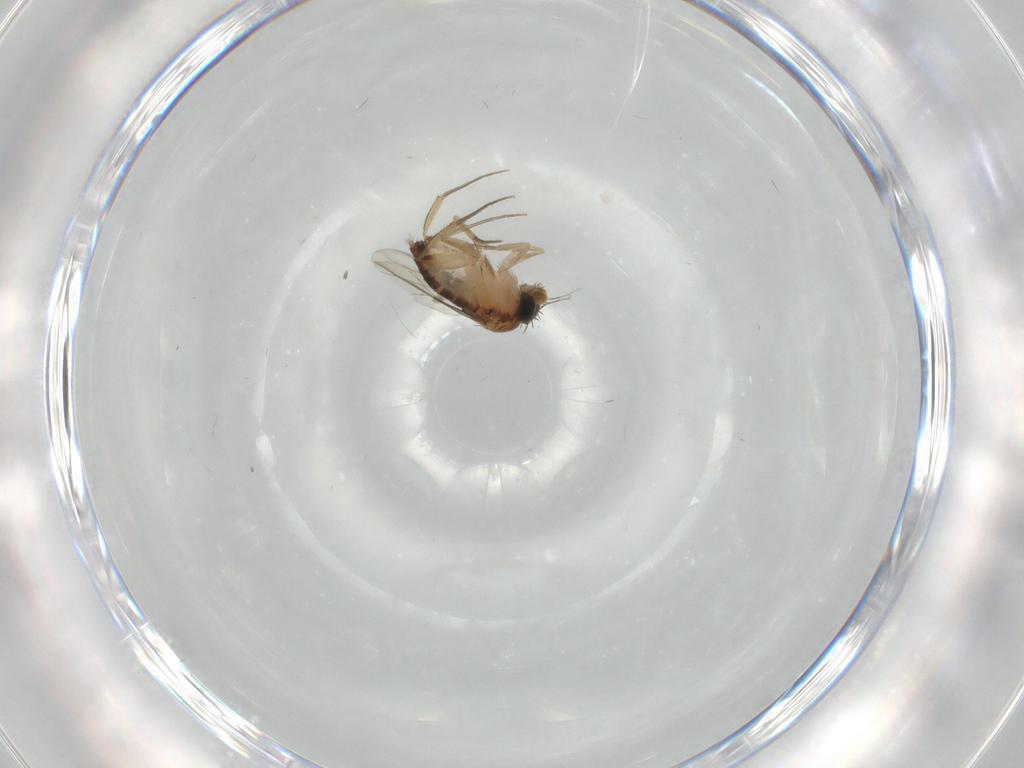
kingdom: Animalia
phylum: Arthropoda
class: Insecta
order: Diptera
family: Phoridae
